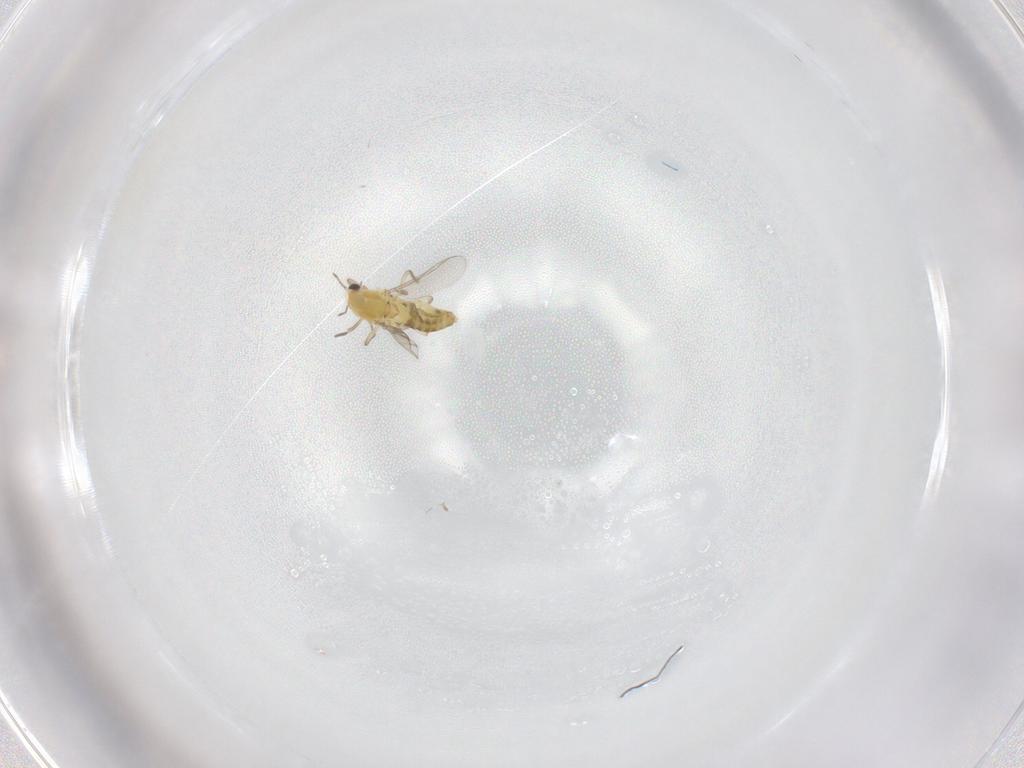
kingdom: Animalia
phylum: Arthropoda
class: Insecta
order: Diptera
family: Chironomidae
